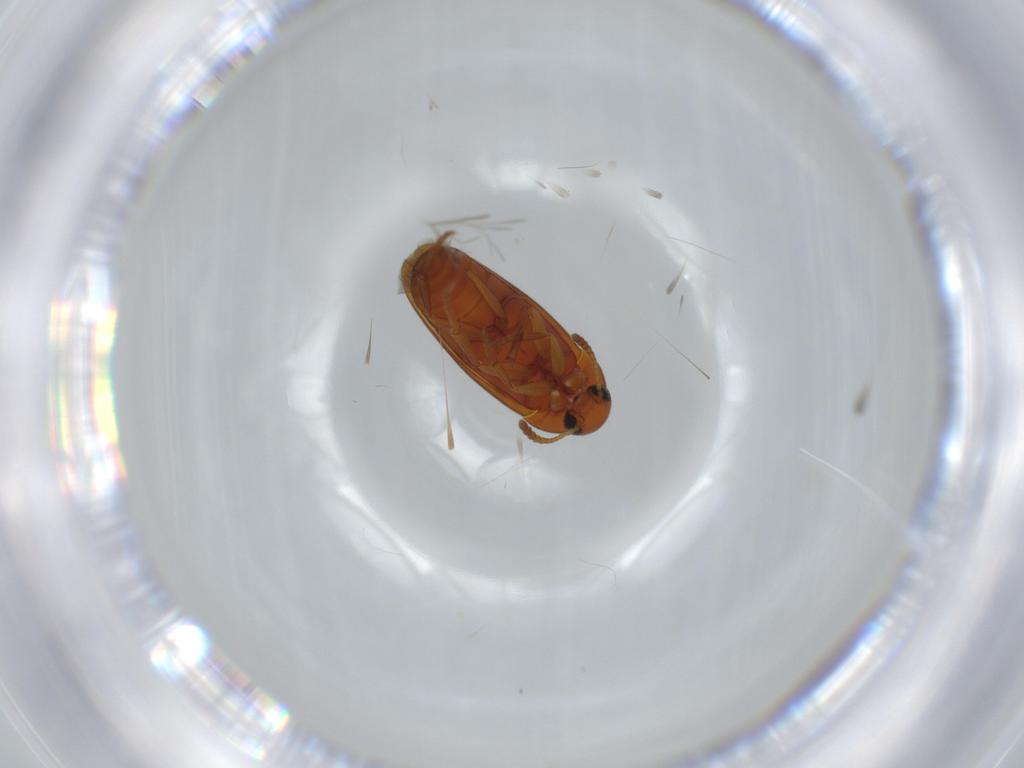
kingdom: Animalia
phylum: Arthropoda
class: Insecta
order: Coleoptera
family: Scraptiidae
